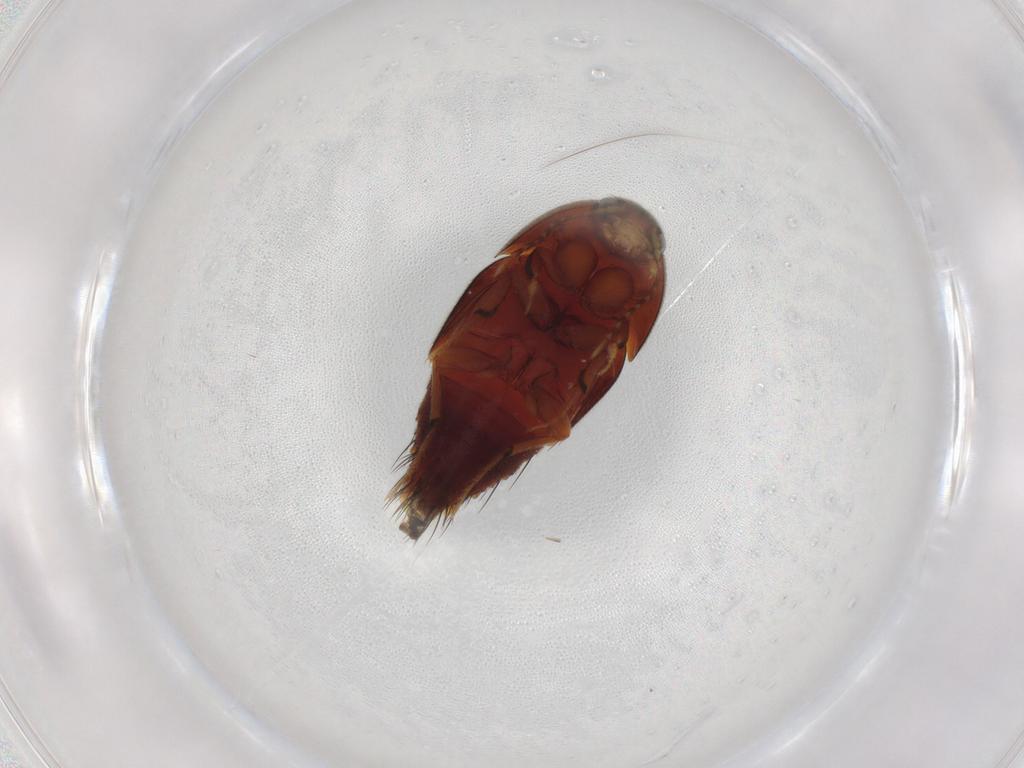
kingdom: Animalia
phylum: Arthropoda
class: Insecta
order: Coleoptera
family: Staphylinidae
